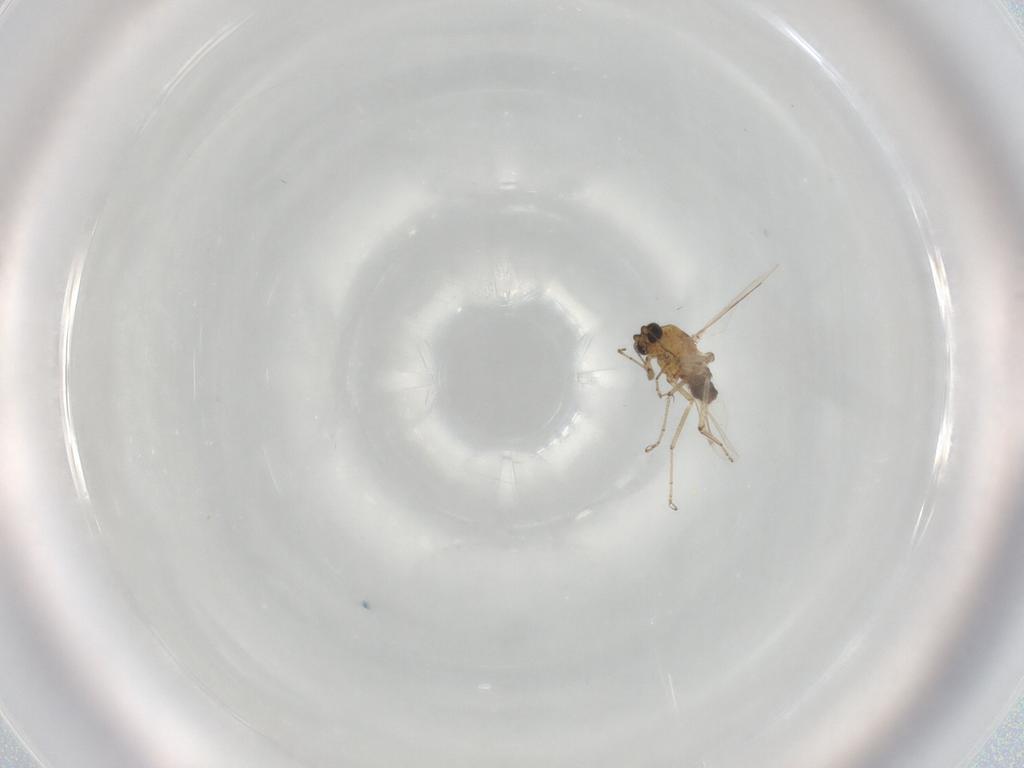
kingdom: Animalia
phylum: Arthropoda
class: Insecta
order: Diptera
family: Ceratopogonidae
